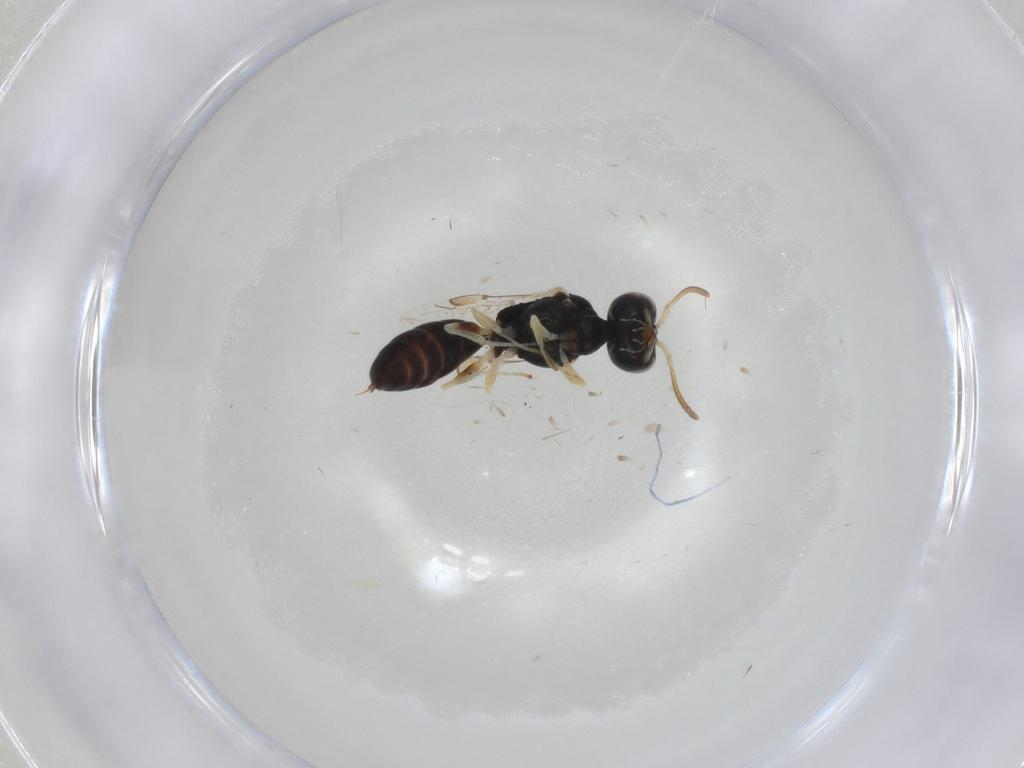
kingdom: Animalia
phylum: Arthropoda
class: Insecta
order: Hymenoptera
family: Pemphredonidae
